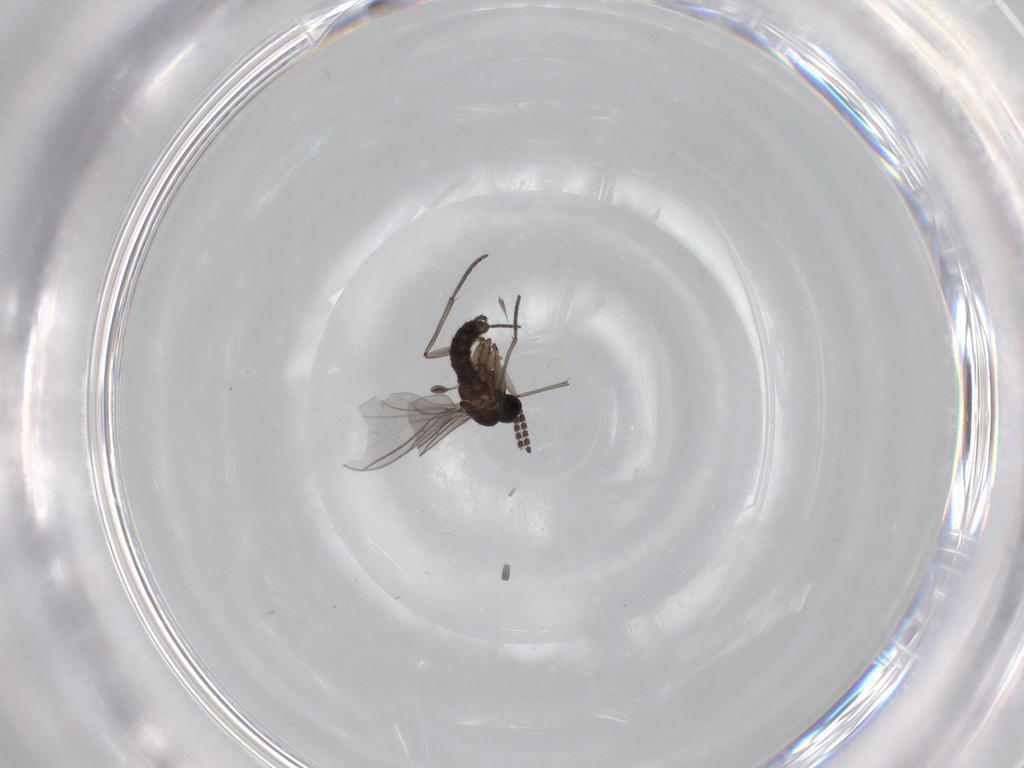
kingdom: Animalia
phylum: Arthropoda
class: Insecta
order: Diptera
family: Sciaridae
